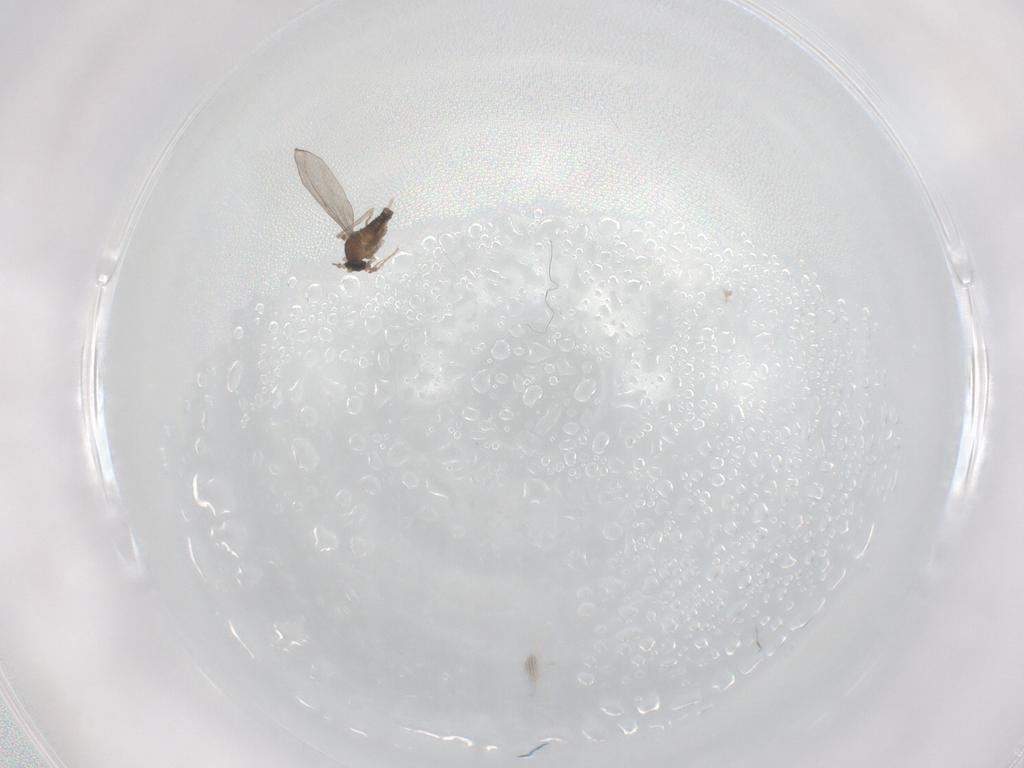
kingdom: Animalia
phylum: Arthropoda
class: Insecta
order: Diptera
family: Cecidomyiidae
